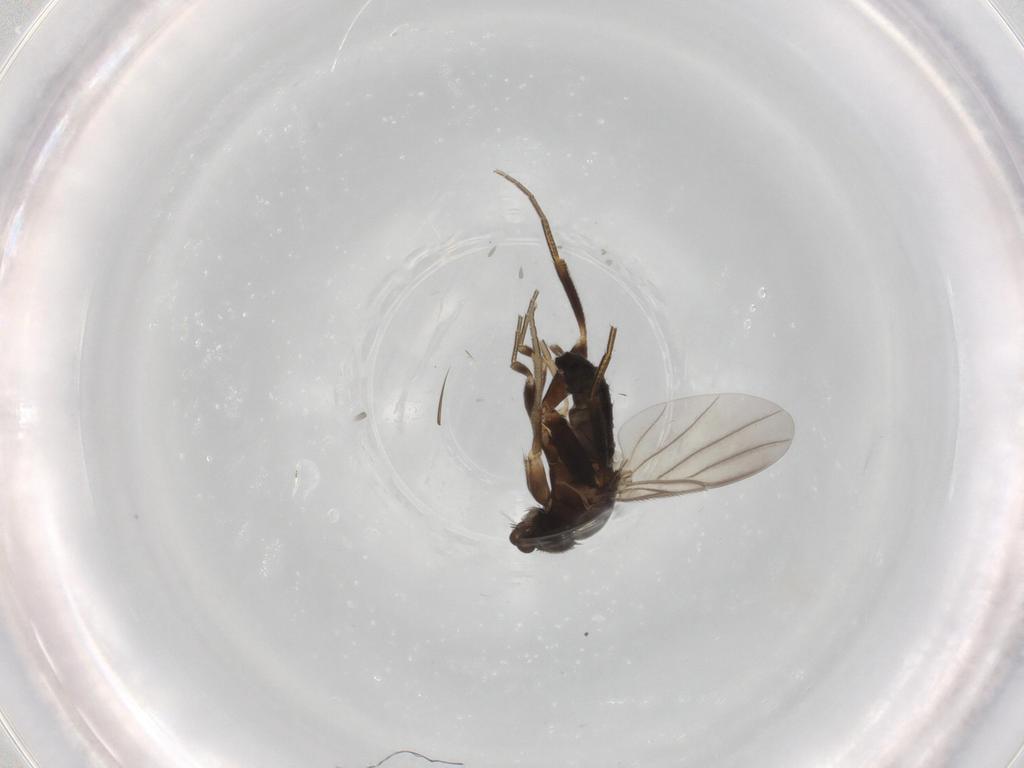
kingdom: Animalia
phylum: Arthropoda
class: Insecta
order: Diptera
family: Phoridae
